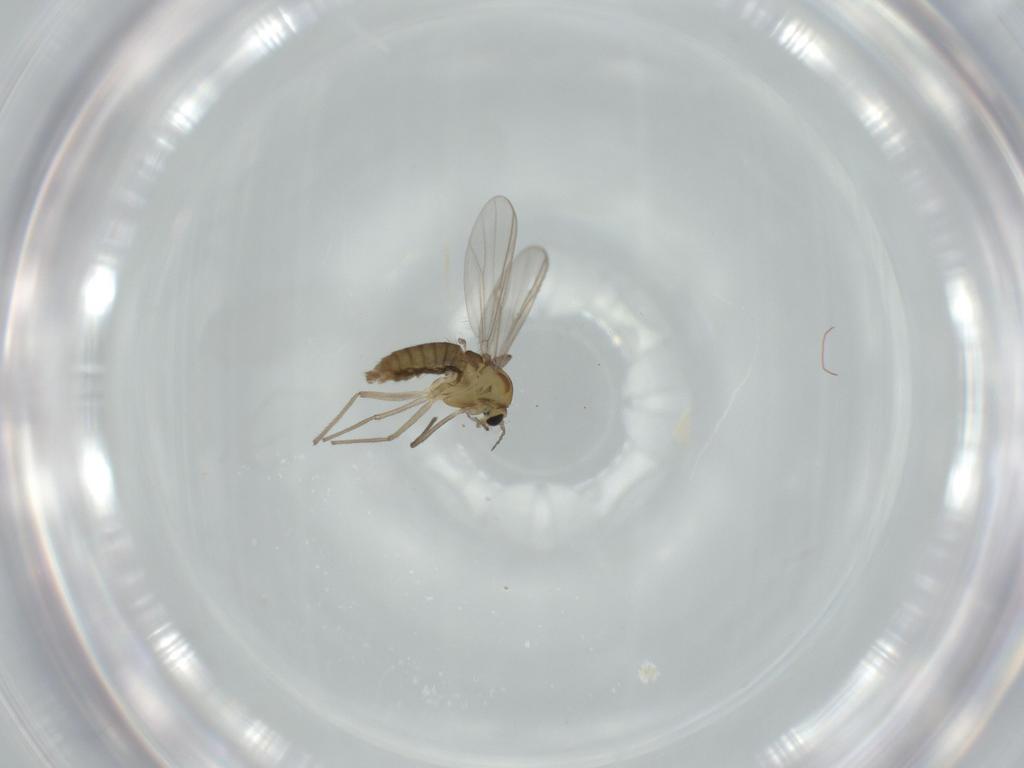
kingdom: Animalia
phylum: Arthropoda
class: Insecta
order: Diptera
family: Chironomidae
